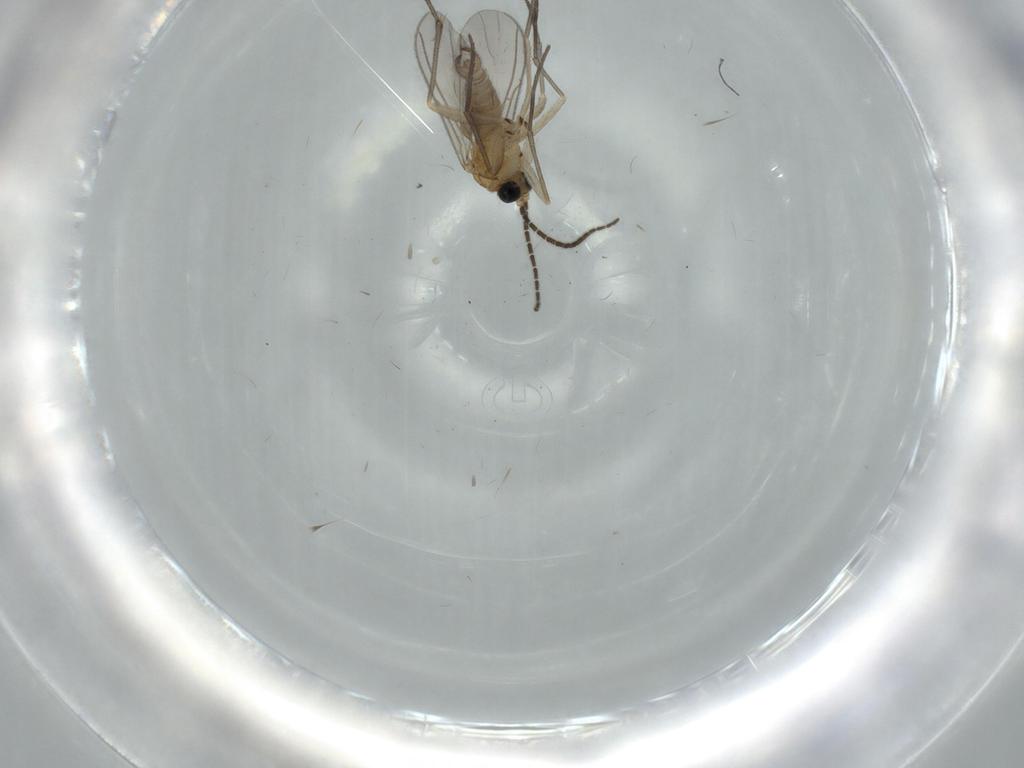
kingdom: Animalia
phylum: Arthropoda
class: Insecta
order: Diptera
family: Sciaridae
